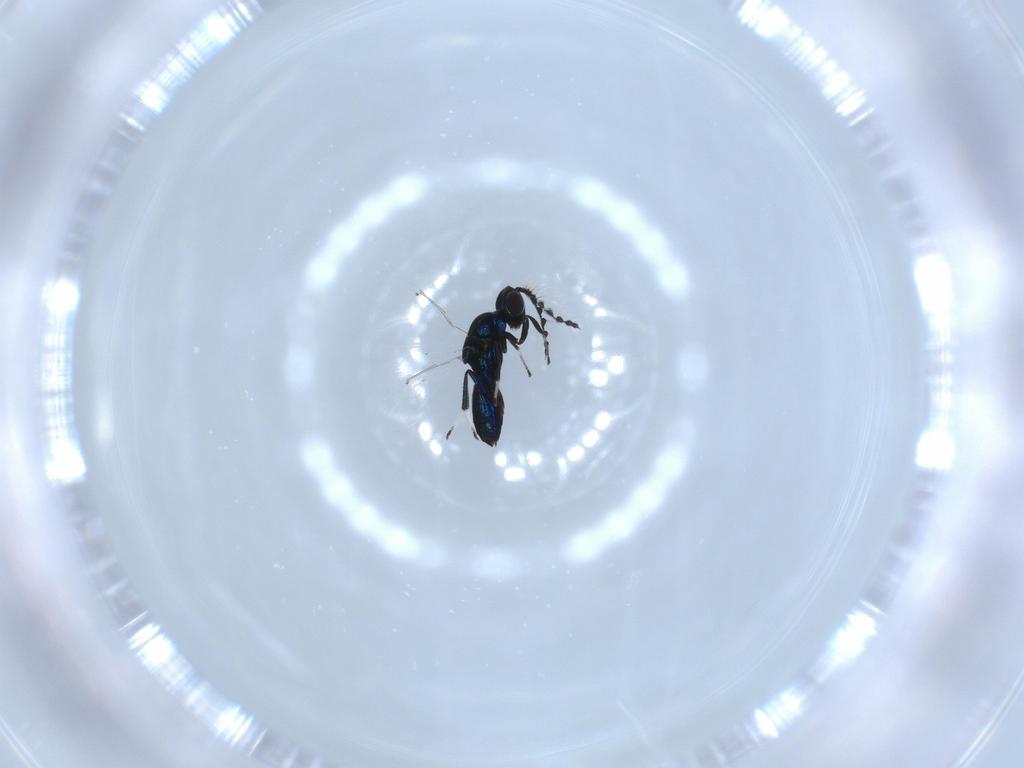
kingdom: Animalia
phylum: Arthropoda
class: Insecta
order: Hymenoptera
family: Eulophidae
